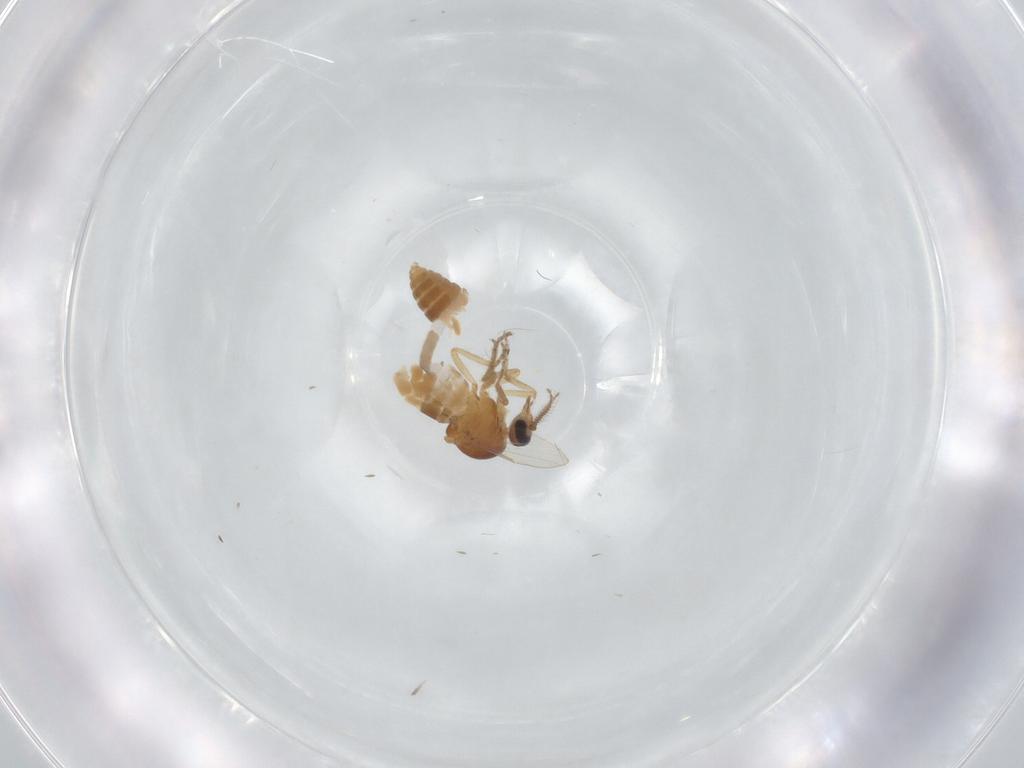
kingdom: Animalia
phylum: Arthropoda
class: Insecta
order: Diptera
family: Ceratopogonidae
